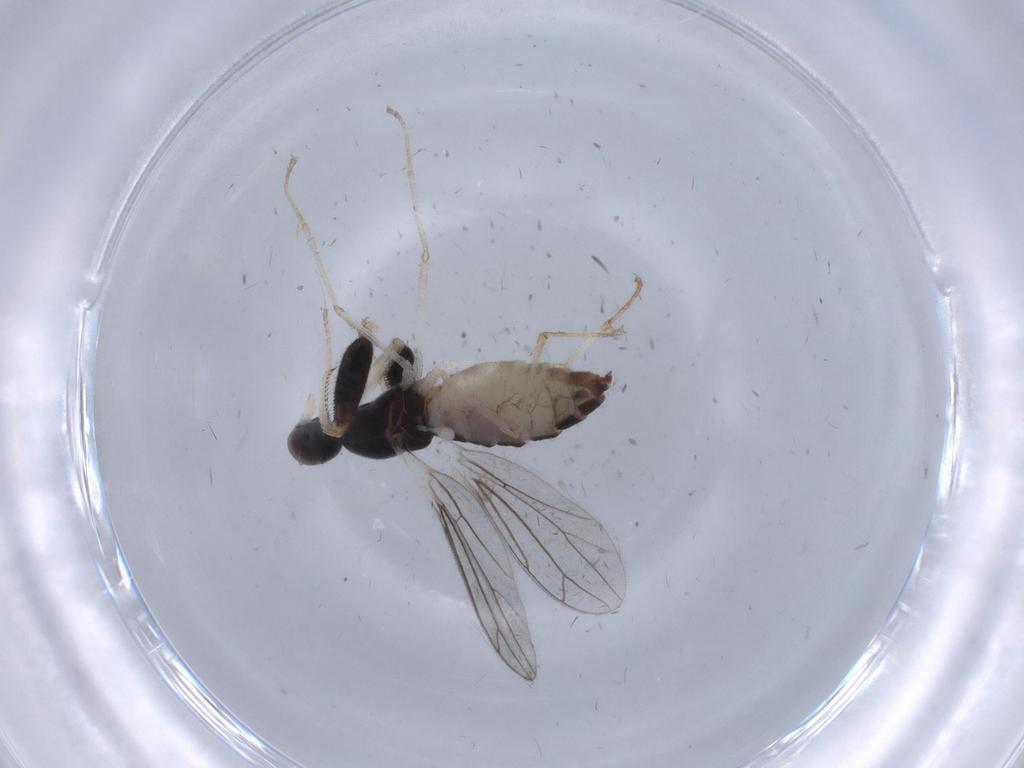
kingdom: Animalia
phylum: Arthropoda
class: Insecta
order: Diptera
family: Empididae
